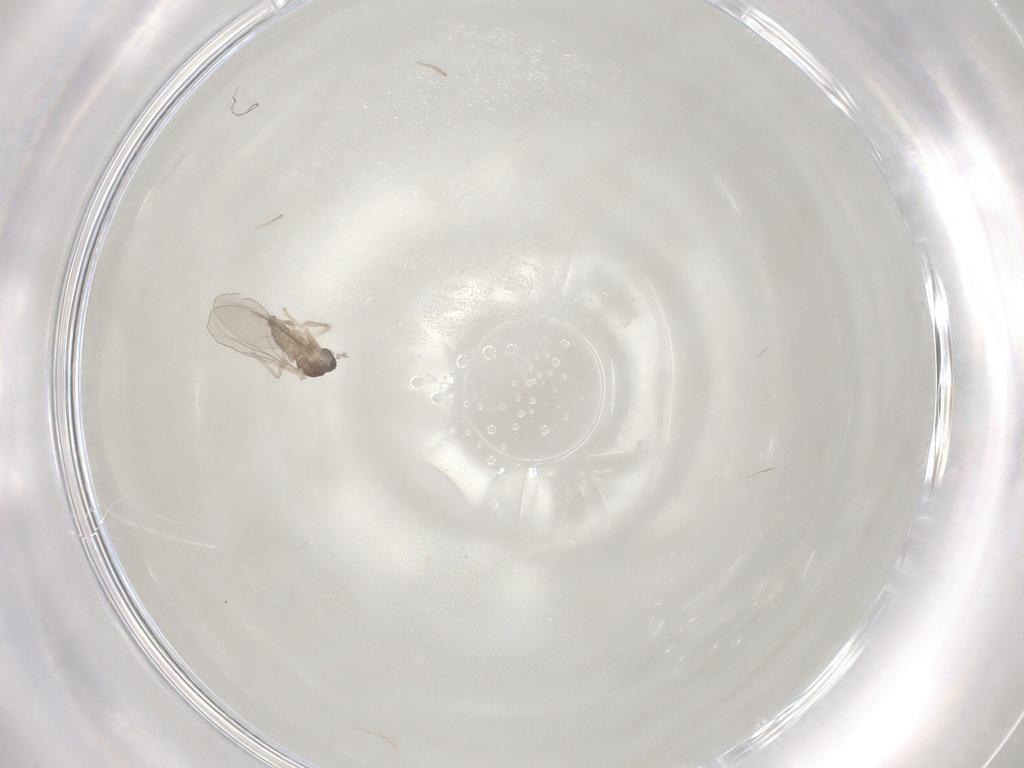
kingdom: Animalia
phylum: Arthropoda
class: Insecta
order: Diptera
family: Cecidomyiidae
